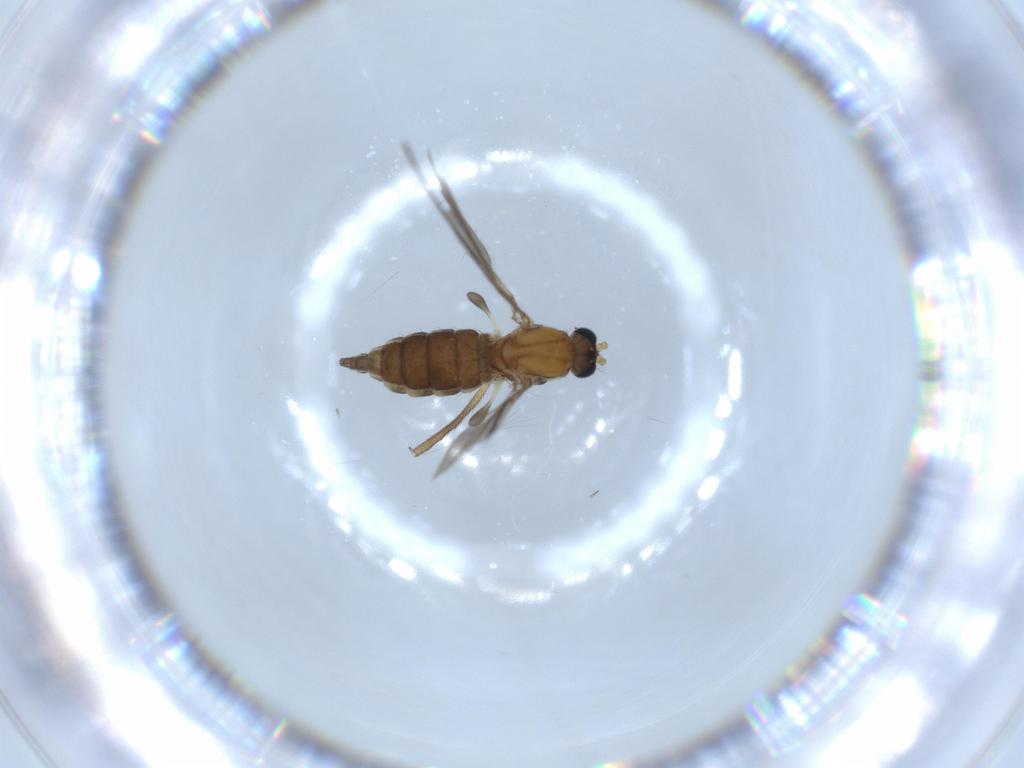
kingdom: Animalia
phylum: Arthropoda
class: Insecta
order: Diptera
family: Sciaridae
